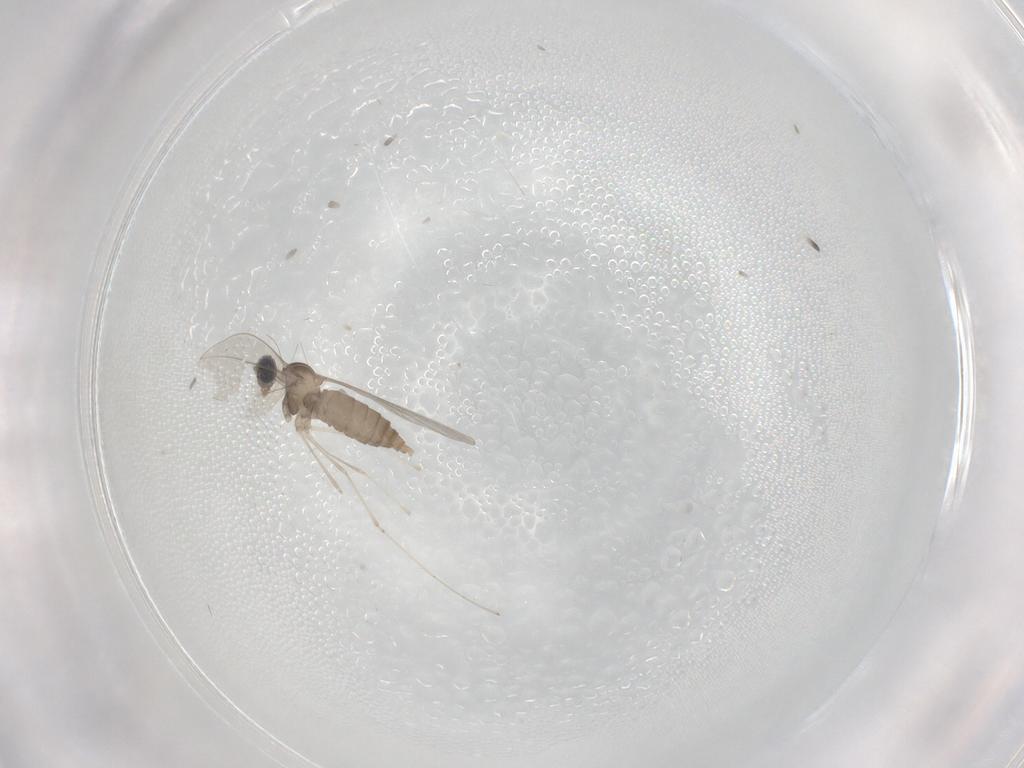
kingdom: Animalia
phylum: Arthropoda
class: Insecta
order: Diptera
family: Cecidomyiidae
